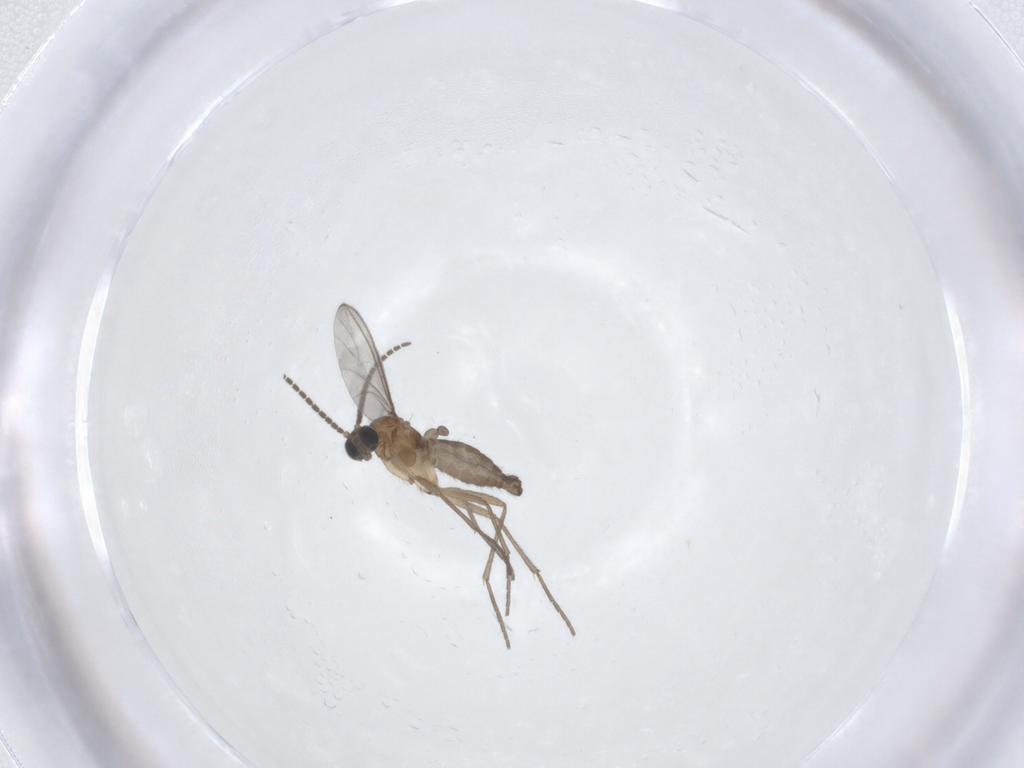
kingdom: Animalia
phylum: Arthropoda
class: Insecta
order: Diptera
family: Sciaridae
